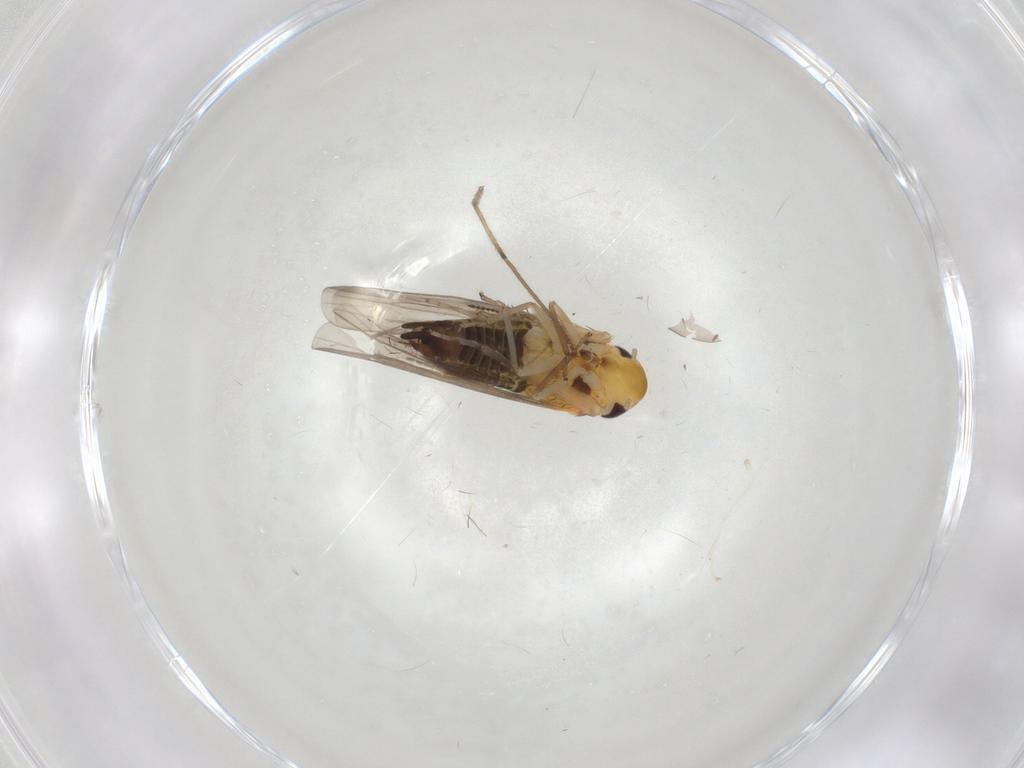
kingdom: Animalia
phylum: Arthropoda
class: Insecta
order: Hemiptera
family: Cicadellidae
